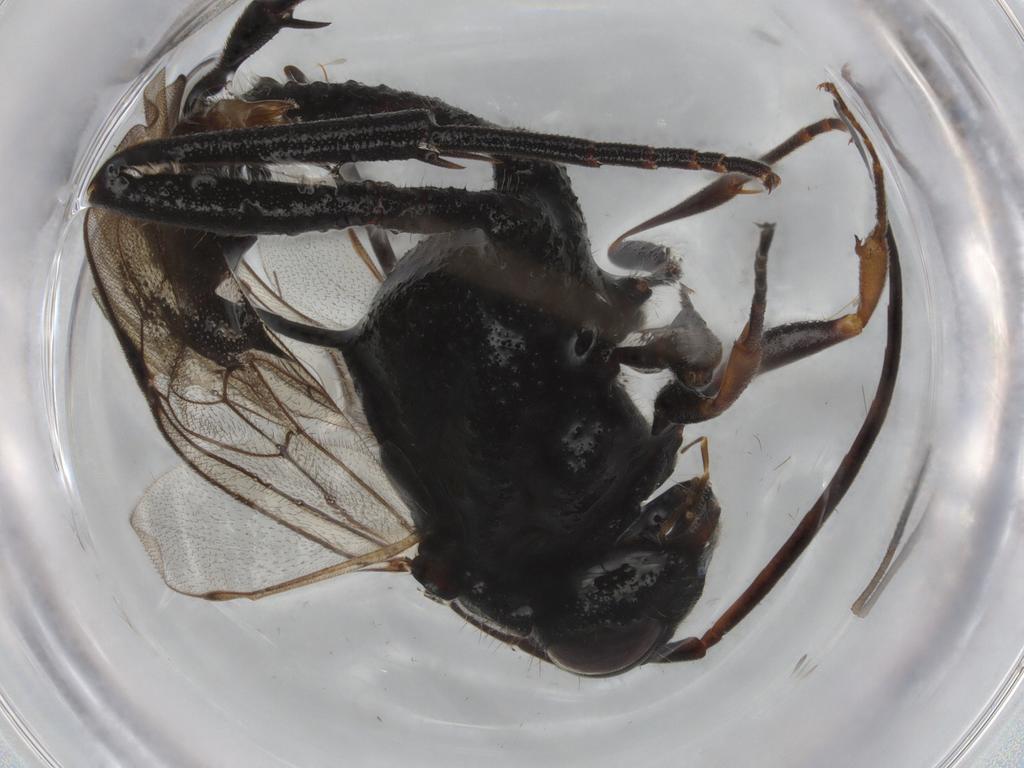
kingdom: Animalia
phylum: Arthropoda
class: Insecta
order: Hymenoptera
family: Evaniidae
